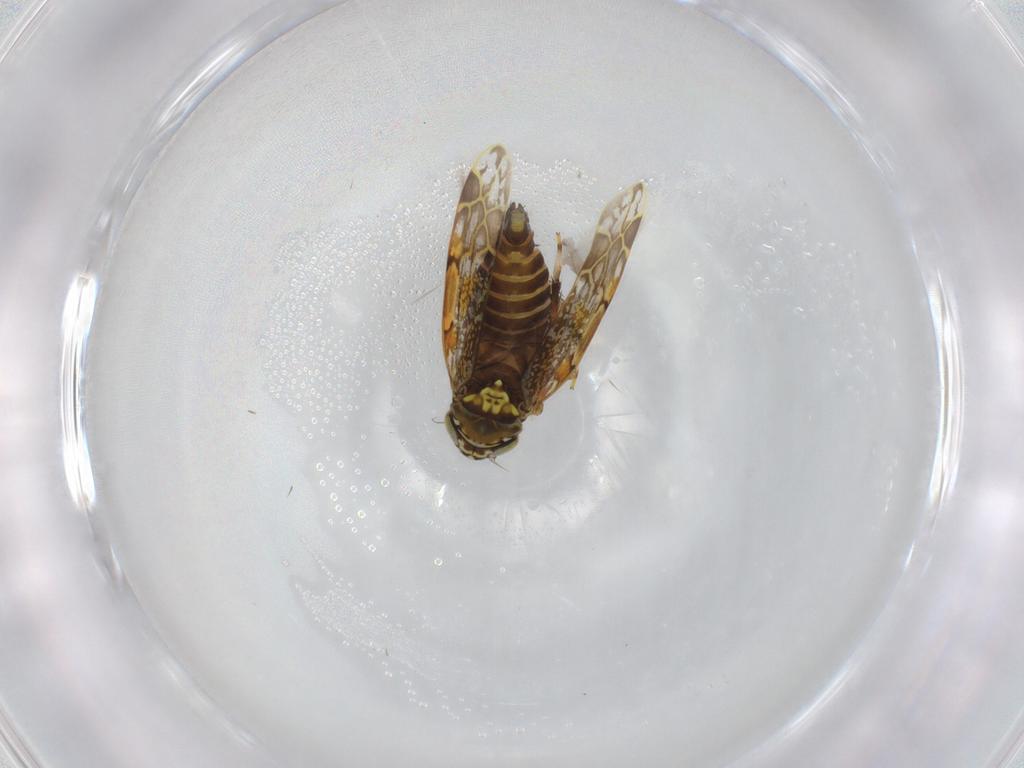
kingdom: Animalia
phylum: Arthropoda
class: Insecta
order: Hemiptera
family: Cicadellidae
